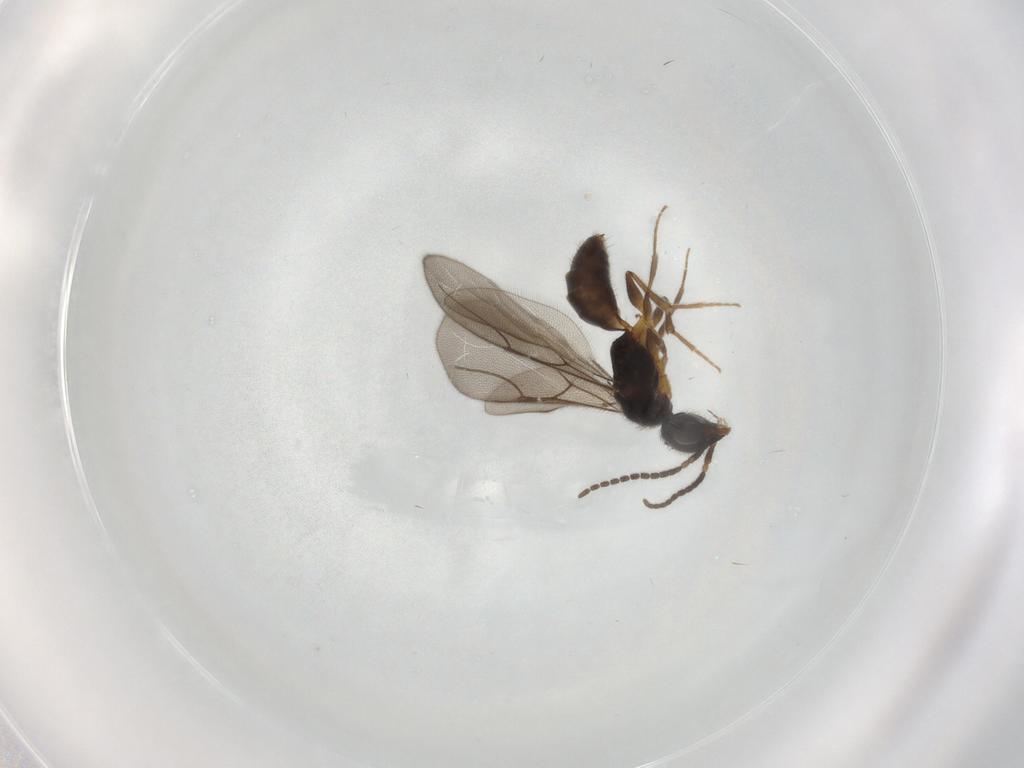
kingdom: Animalia
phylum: Arthropoda
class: Insecta
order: Hymenoptera
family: Bethylidae
